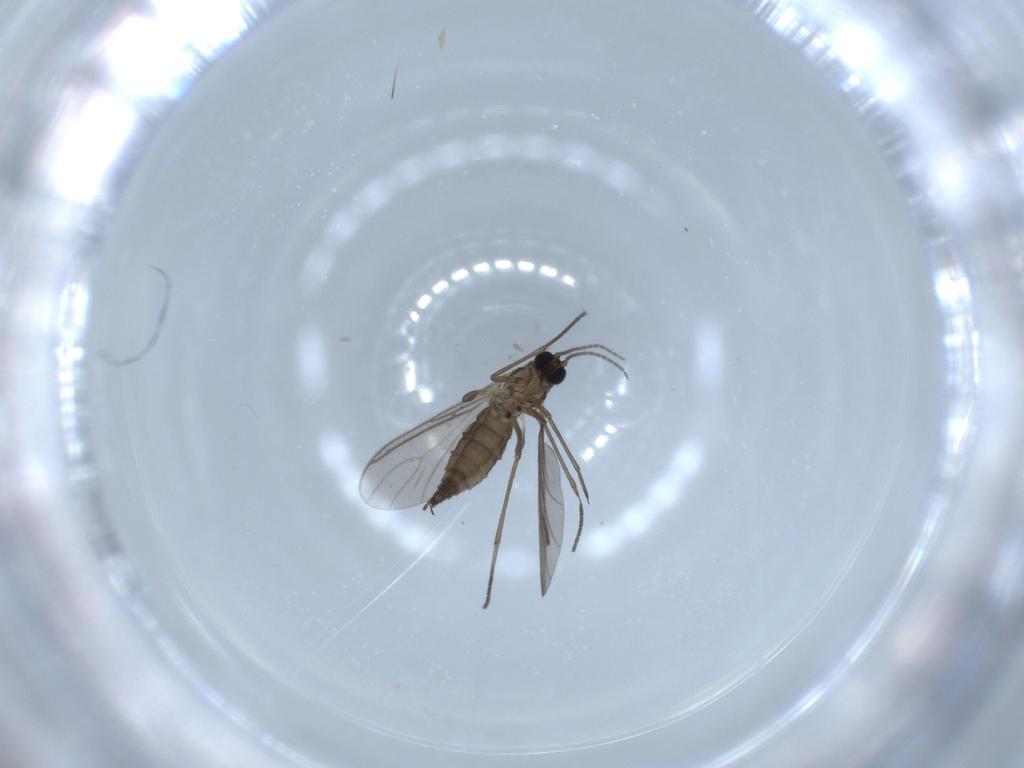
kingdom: Animalia
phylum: Arthropoda
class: Insecta
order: Diptera
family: Sciaridae
